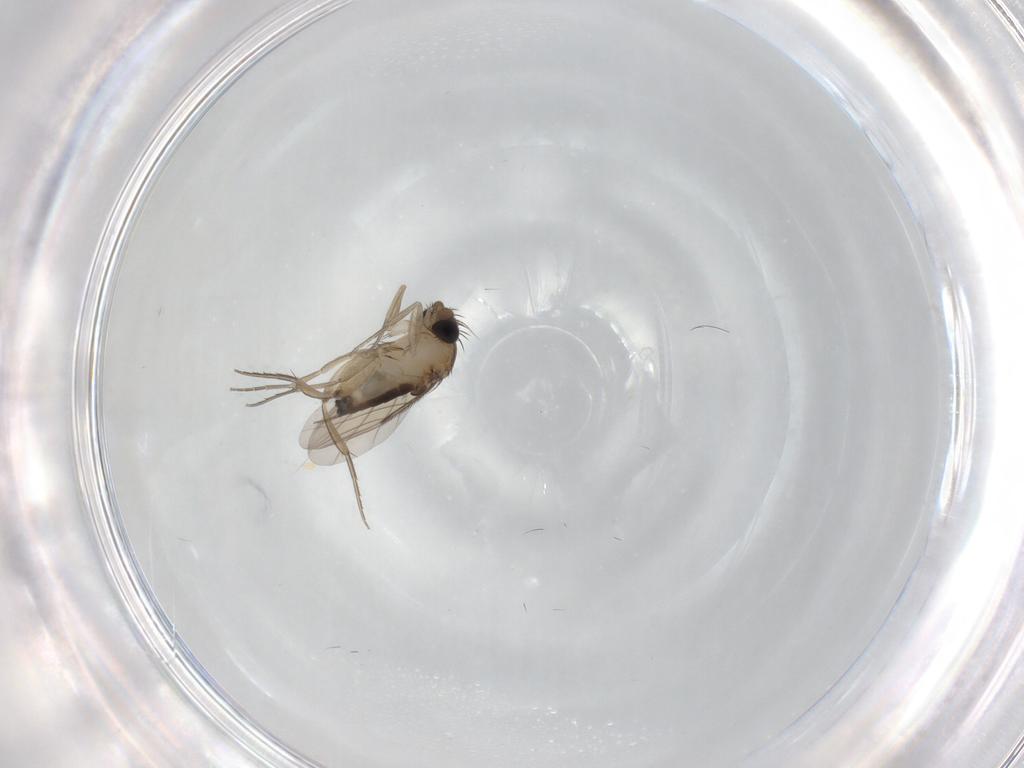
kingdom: Animalia
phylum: Arthropoda
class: Insecta
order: Diptera
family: Phoridae
